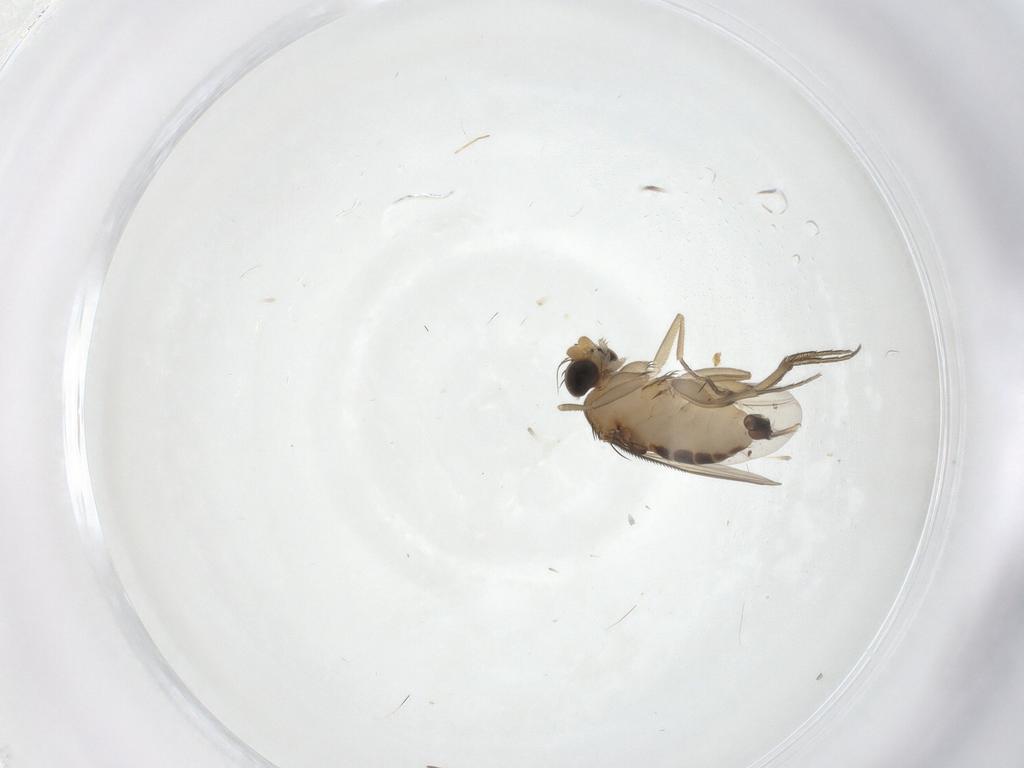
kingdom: Animalia
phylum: Arthropoda
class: Insecta
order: Diptera
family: Phoridae
